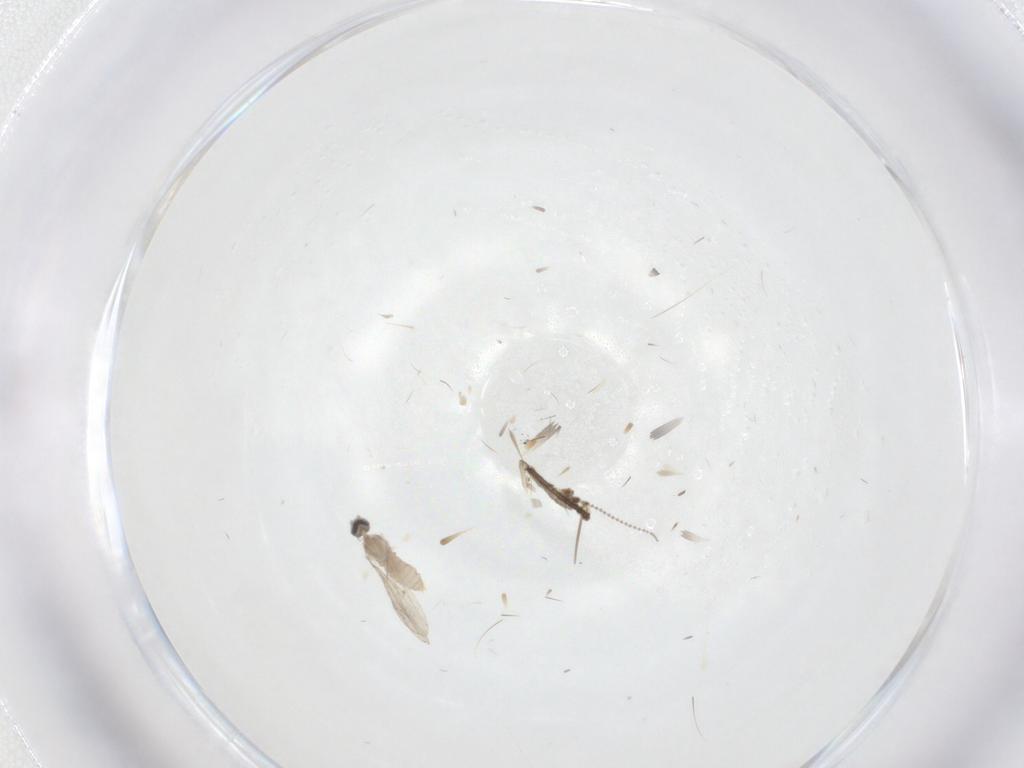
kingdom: Animalia
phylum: Arthropoda
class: Insecta
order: Diptera
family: Cecidomyiidae
